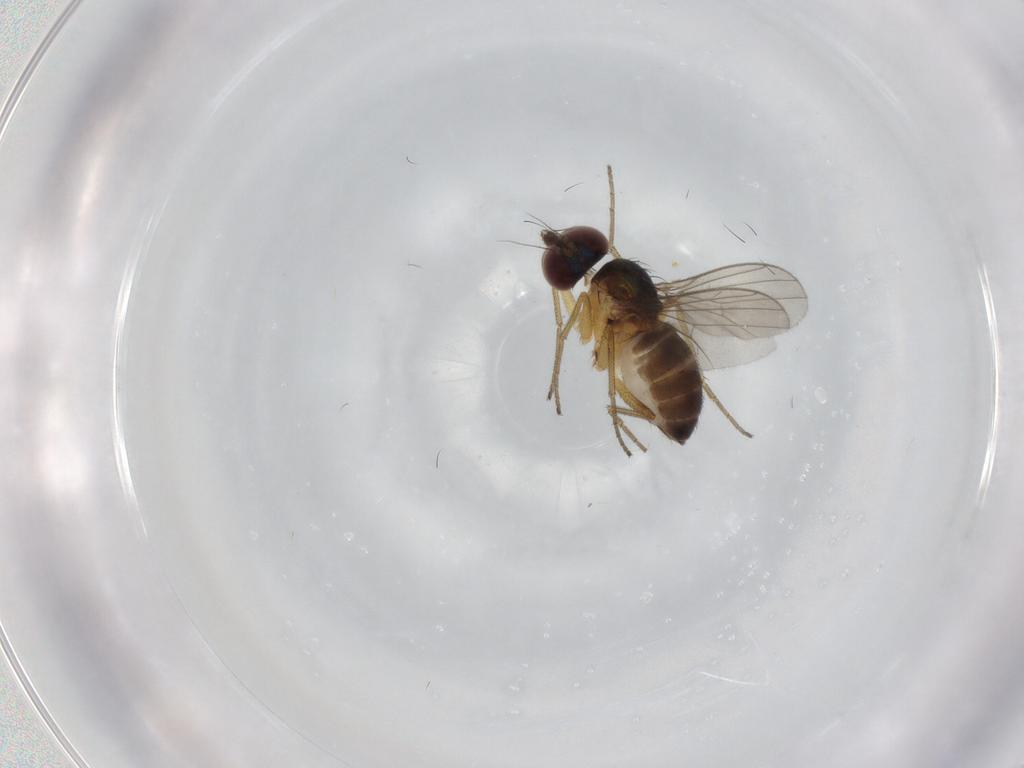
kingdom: Animalia
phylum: Arthropoda
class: Insecta
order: Diptera
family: Dolichopodidae
